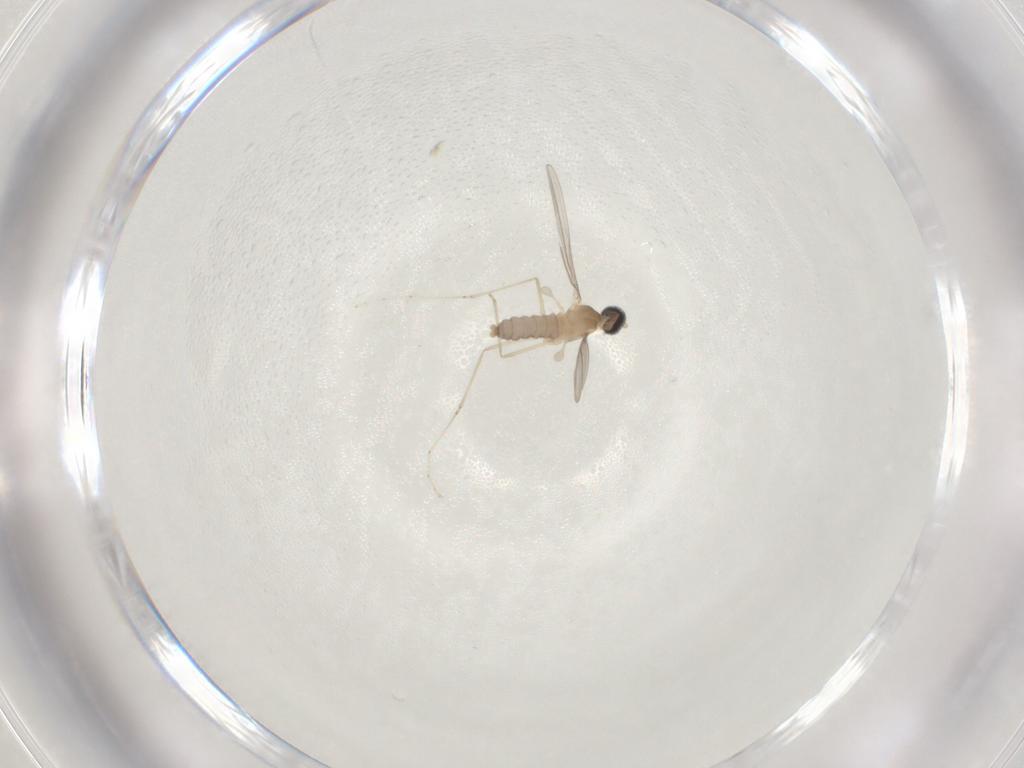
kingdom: Animalia
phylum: Arthropoda
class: Insecta
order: Diptera
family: Cecidomyiidae
